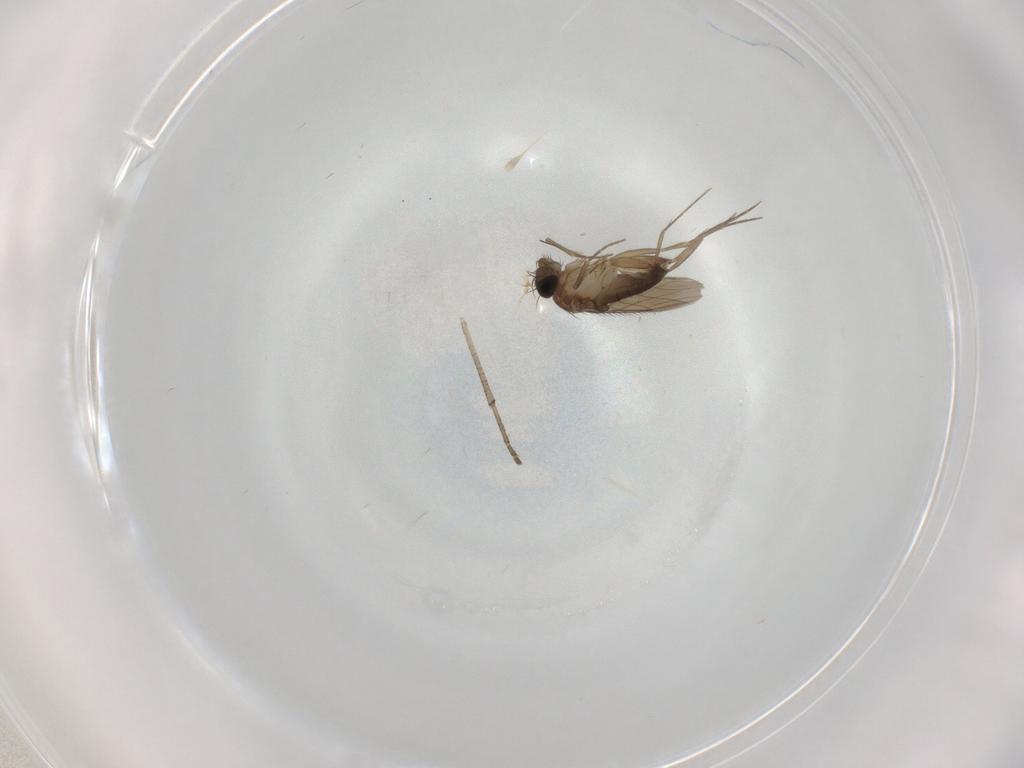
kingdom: Animalia
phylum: Arthropoda
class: Insecta
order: Diptera
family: Phoridae
